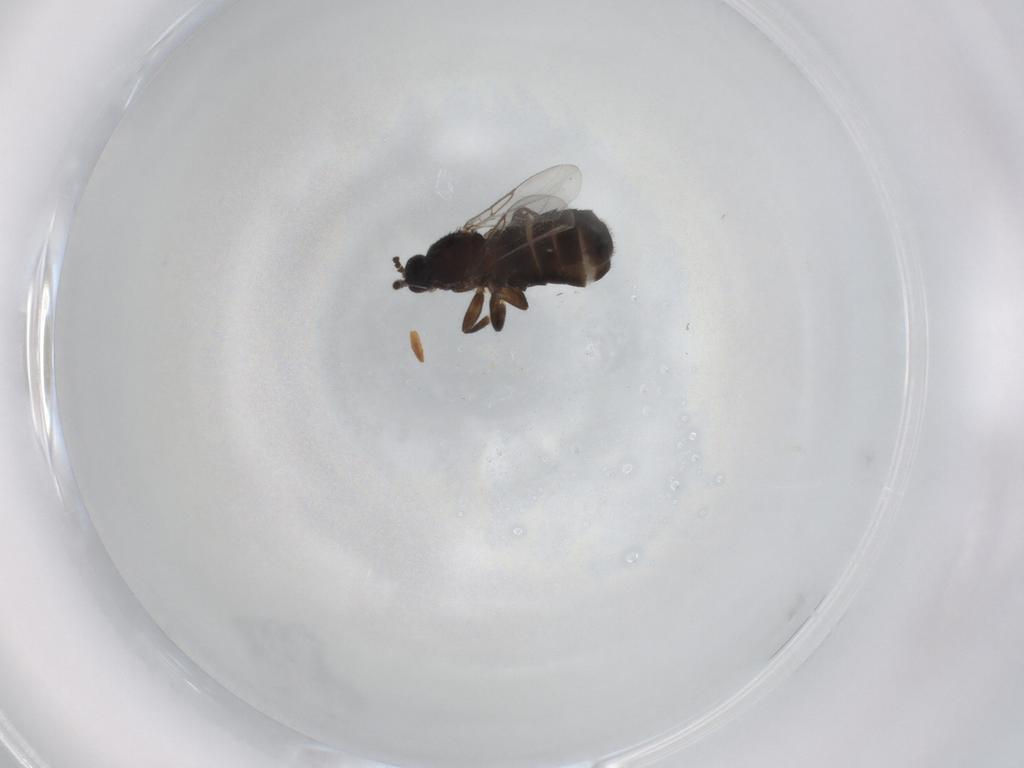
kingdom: Animalia
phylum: Arthropoda
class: Insecta
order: Diptera
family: Scatopsidae
